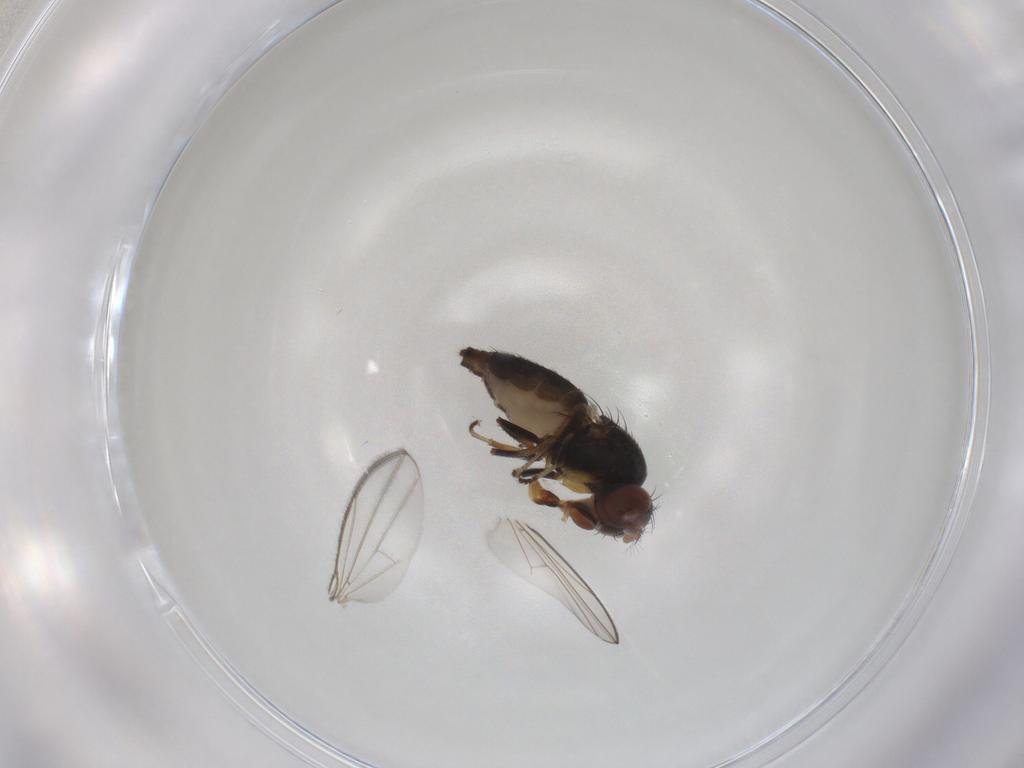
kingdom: Animalia
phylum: Arthropoda
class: Insecta
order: Diptera
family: Ephydridae
